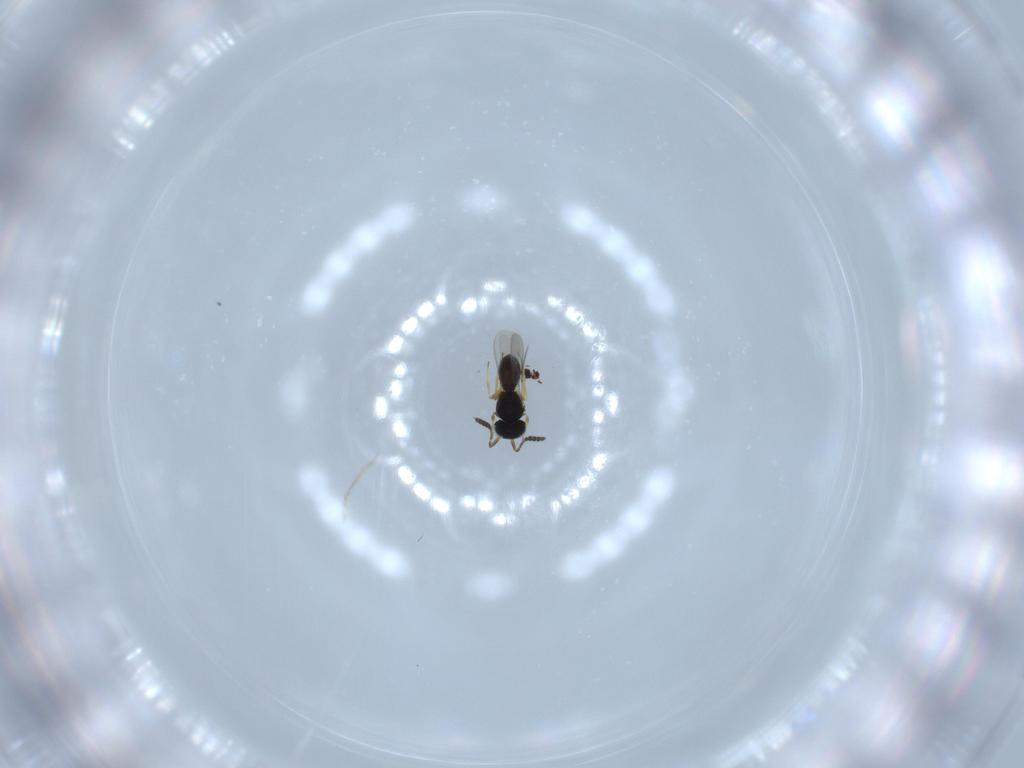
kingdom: Animalia
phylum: Arthropoda
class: Insecta
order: Hymenoptera
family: Scelionidae
